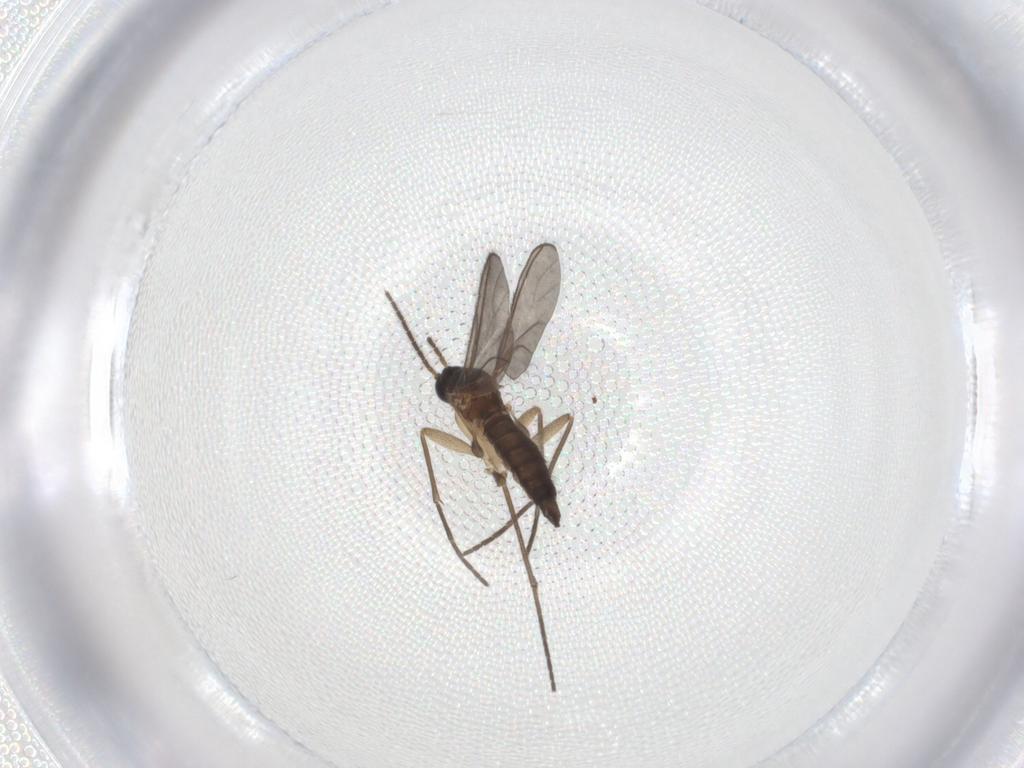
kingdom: Animalia
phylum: Arthropoda
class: Insecta
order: Diptera
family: Sciaridae
